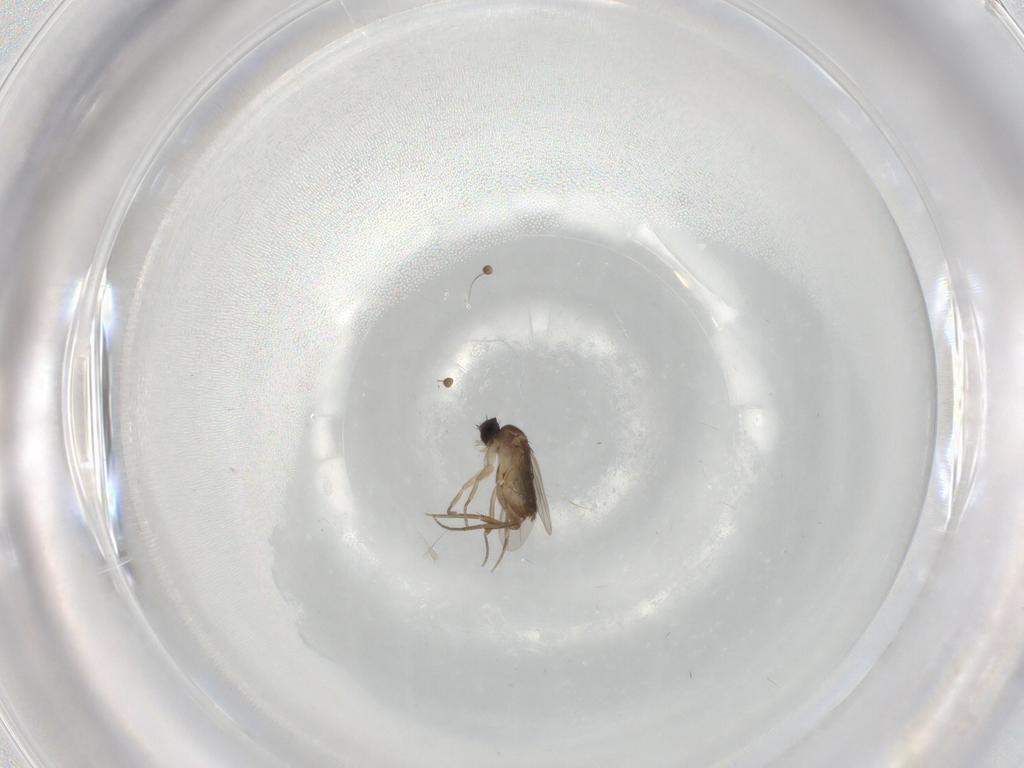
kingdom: Animalia
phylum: Arthropoda
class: Insecta
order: Diptera
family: Phoridae
